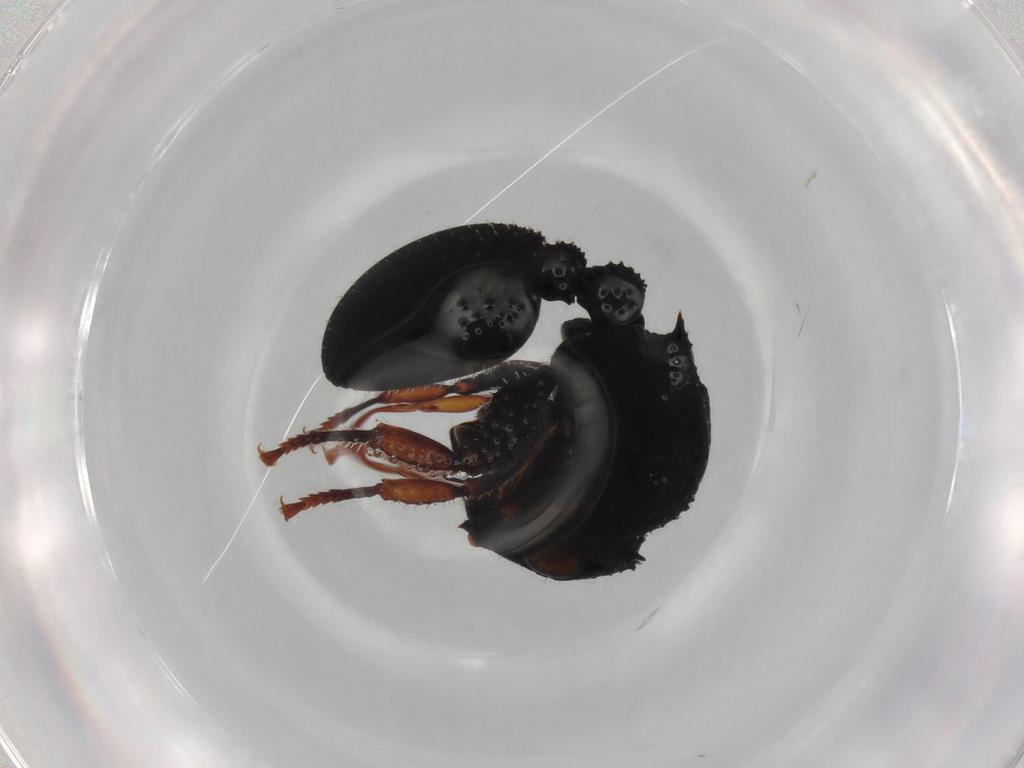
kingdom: Animalia
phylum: Arthropoda
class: Insecta
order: Hymenoptera
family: Formicidae
